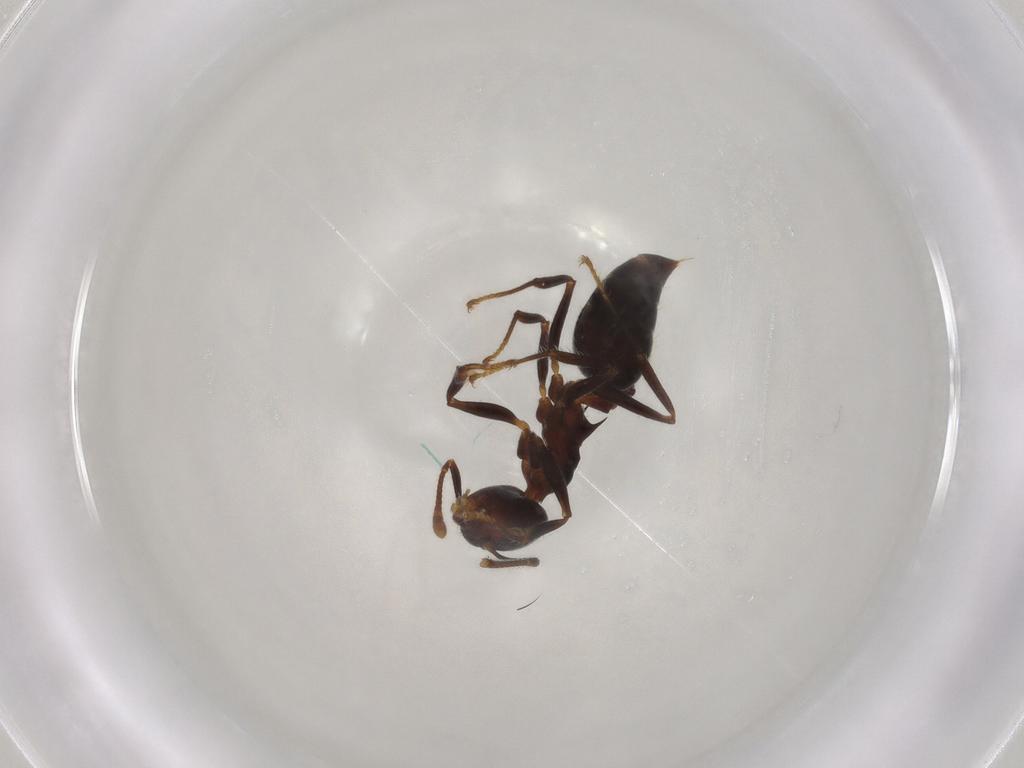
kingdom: Animalia
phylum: Arthropoda
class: Insecta
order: Hymenoptera
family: Formicidae
